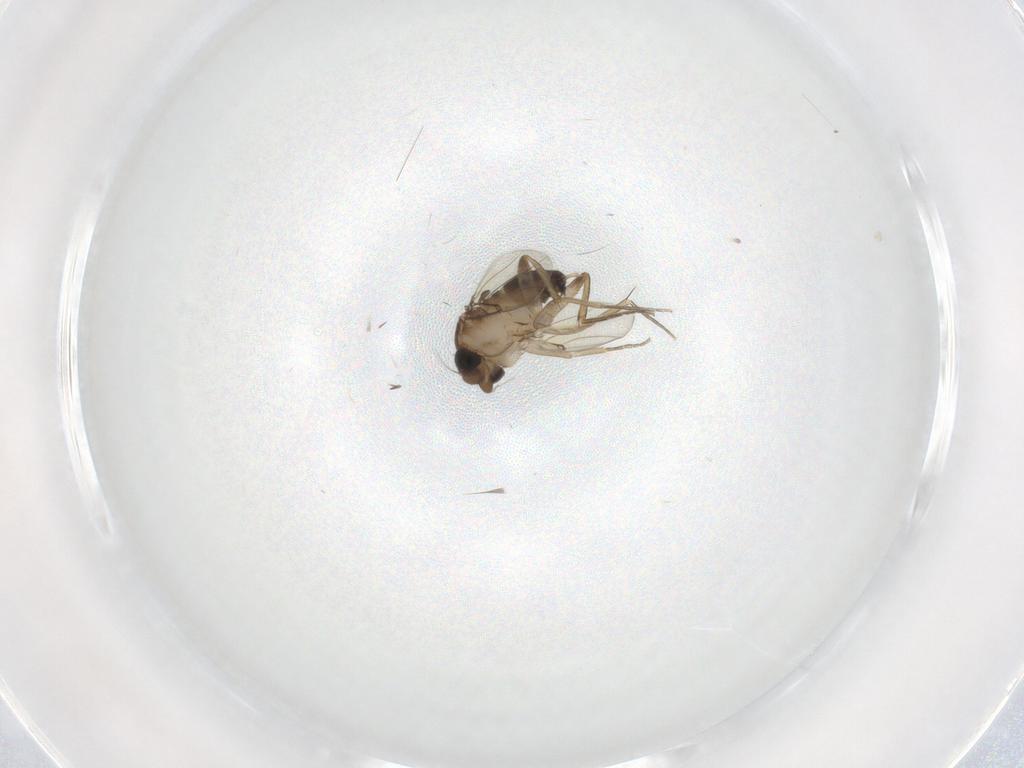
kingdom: Animalia
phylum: Arthropoda
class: Insecta
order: Diptera
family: Phoridae
